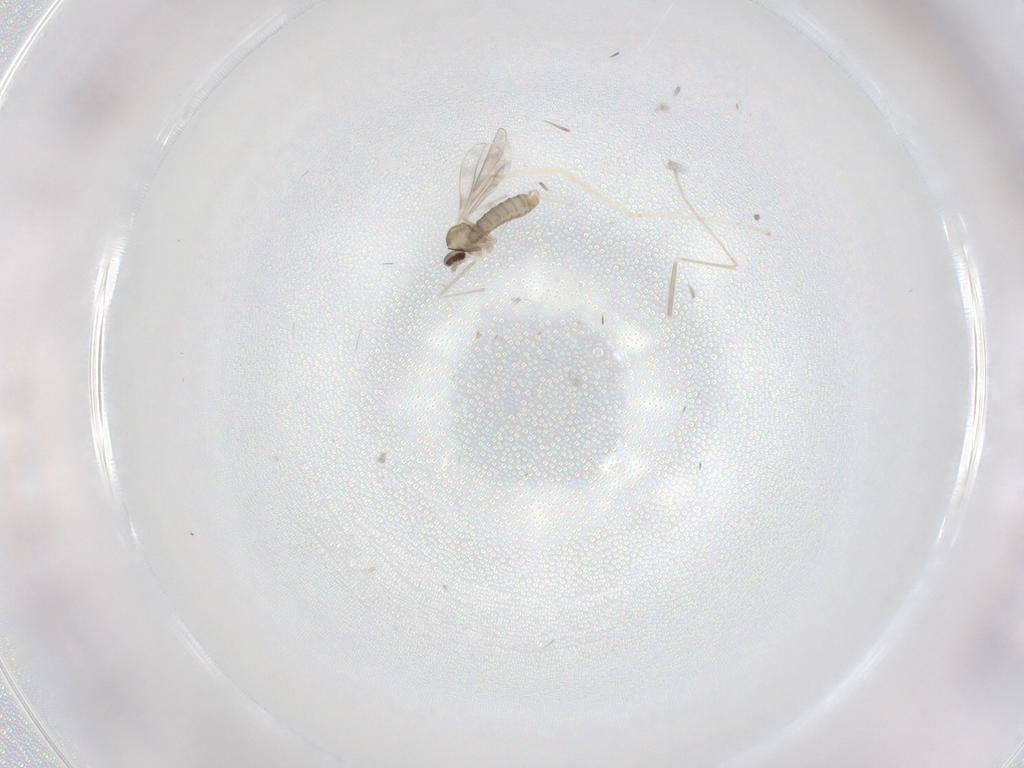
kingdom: Animalia
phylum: Arthropoda
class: Insecta
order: Diptera
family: Cecidomyiidae
